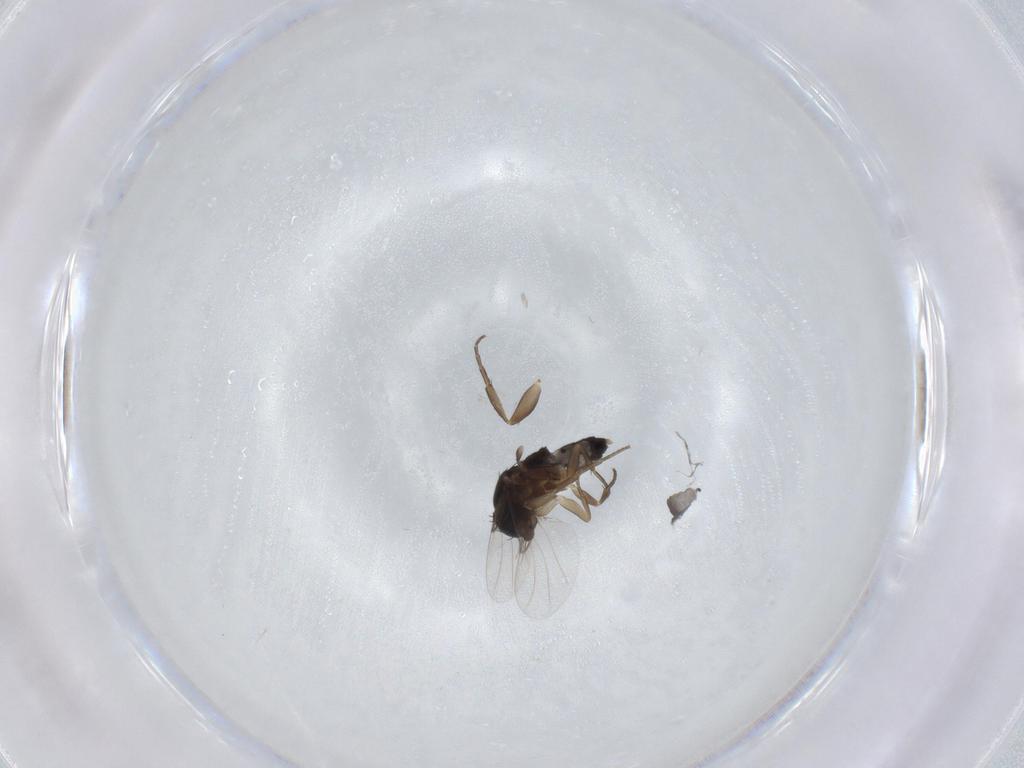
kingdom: Animalia
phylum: Arthropoda
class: Insecta
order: Diptera
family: Phoridae
